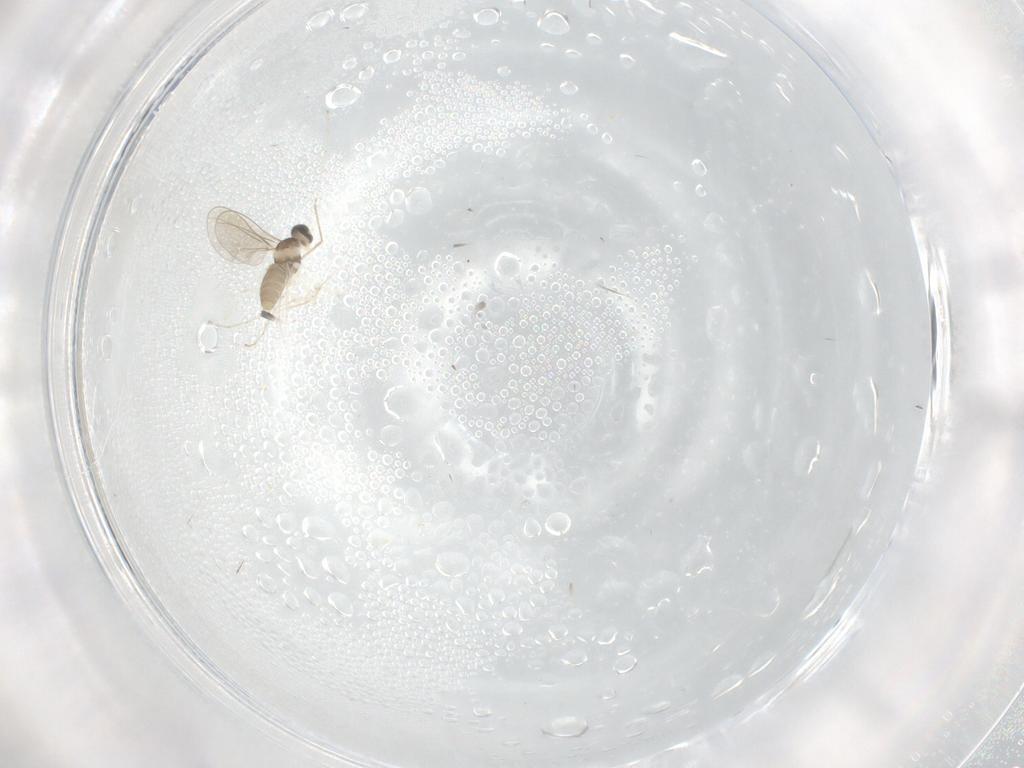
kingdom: Animalia
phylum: Arthropoda
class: Insecta
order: Diptera
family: Cecidomyiidae
